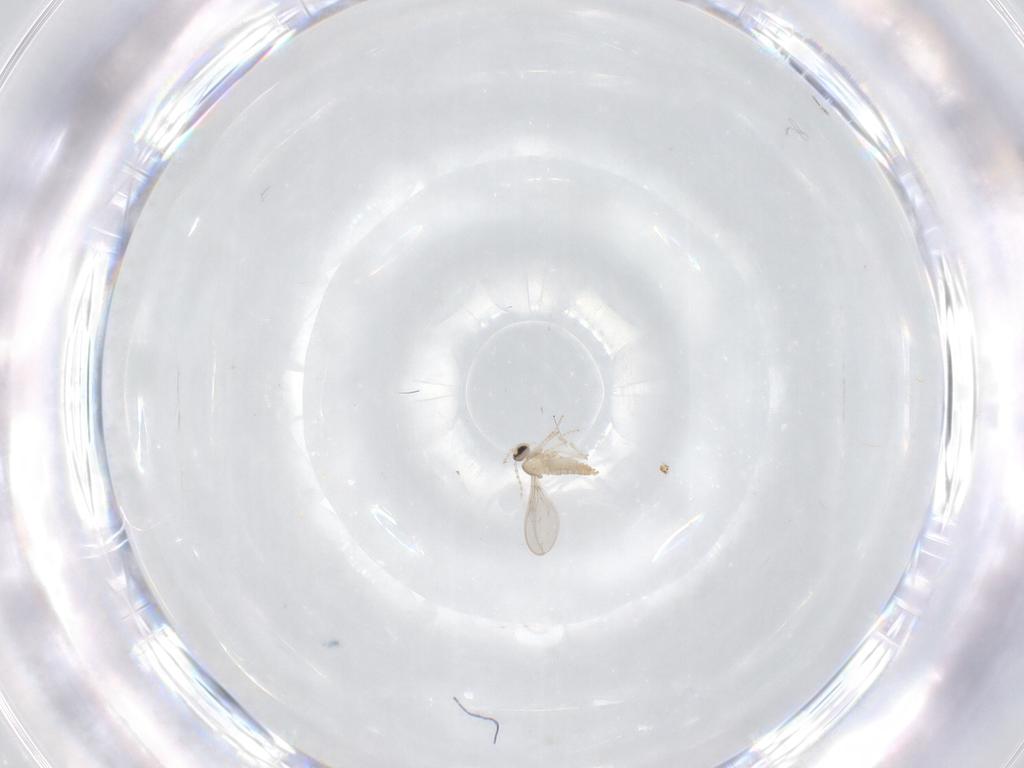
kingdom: Animalia
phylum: Arthropoda
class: Insecta
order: Diptera
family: Cecidomyiidae
